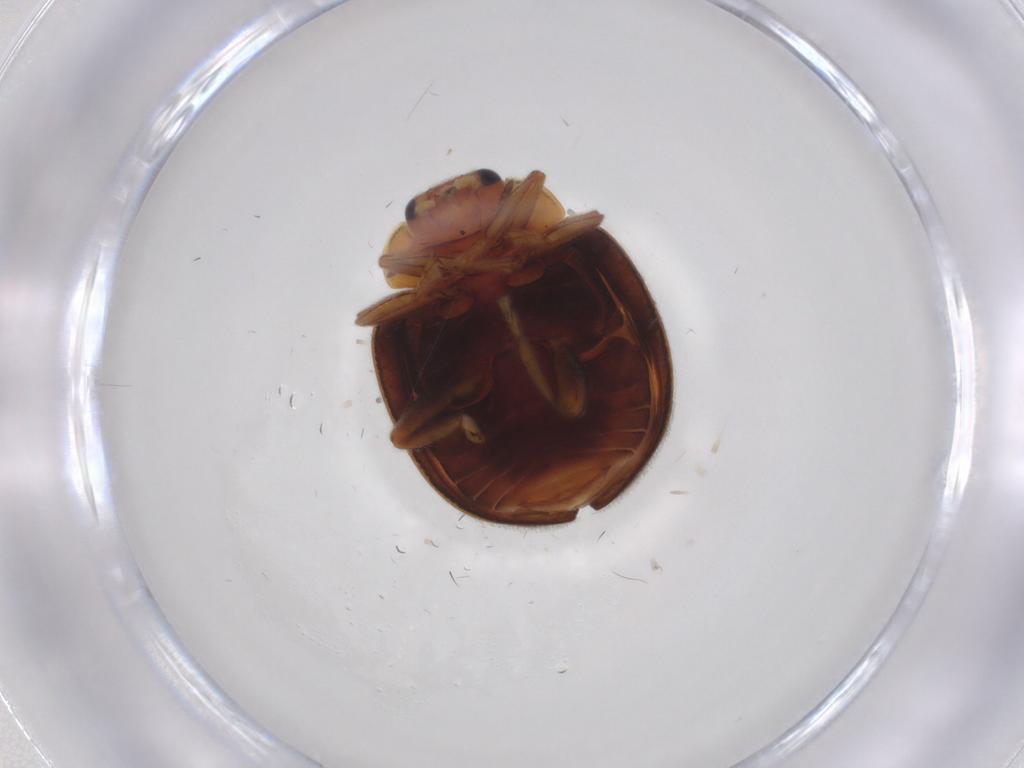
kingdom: Animalia
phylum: Arthropoda
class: Insecta
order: Coleoptera
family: Coccinellidae
